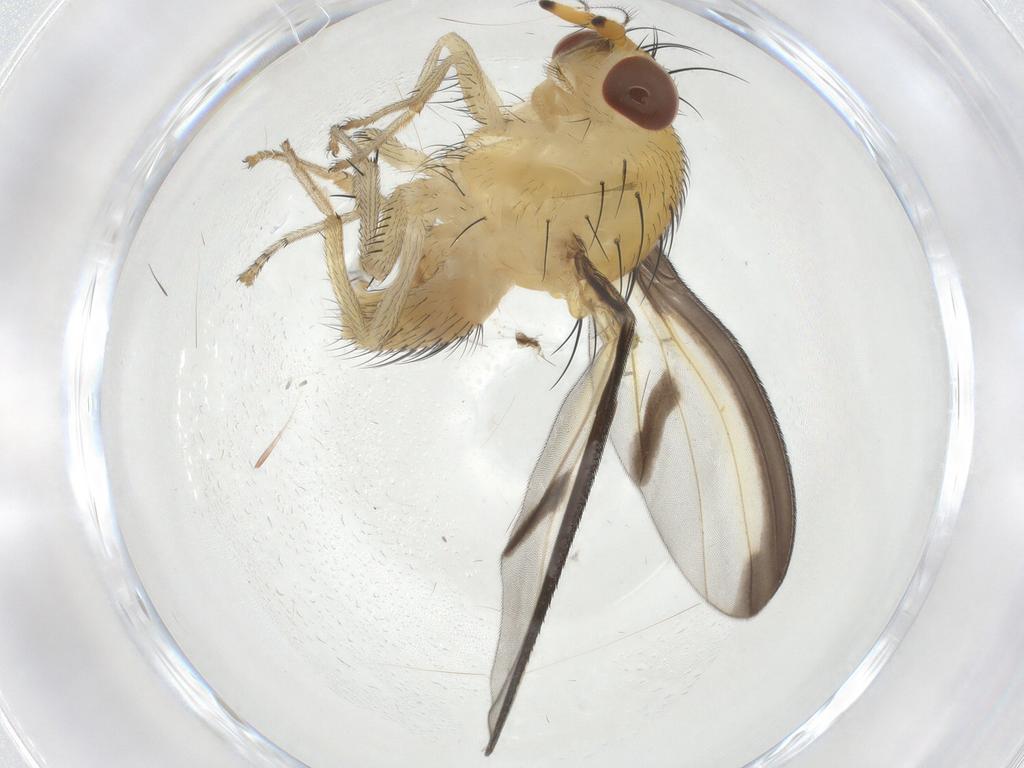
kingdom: Animalia
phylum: Arthropoda
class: Insecta
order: Diptera
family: Lauxaniidae
